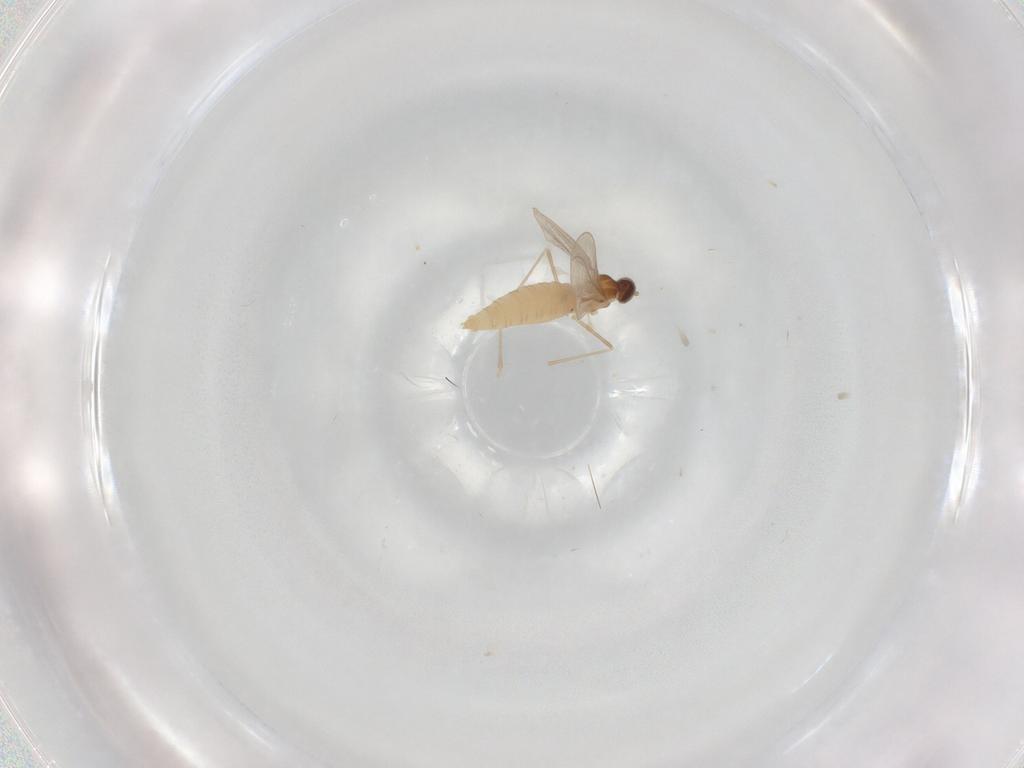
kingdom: Animalia
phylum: Arthropoda
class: Insecta
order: Diptera
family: Cecidomyiidae
